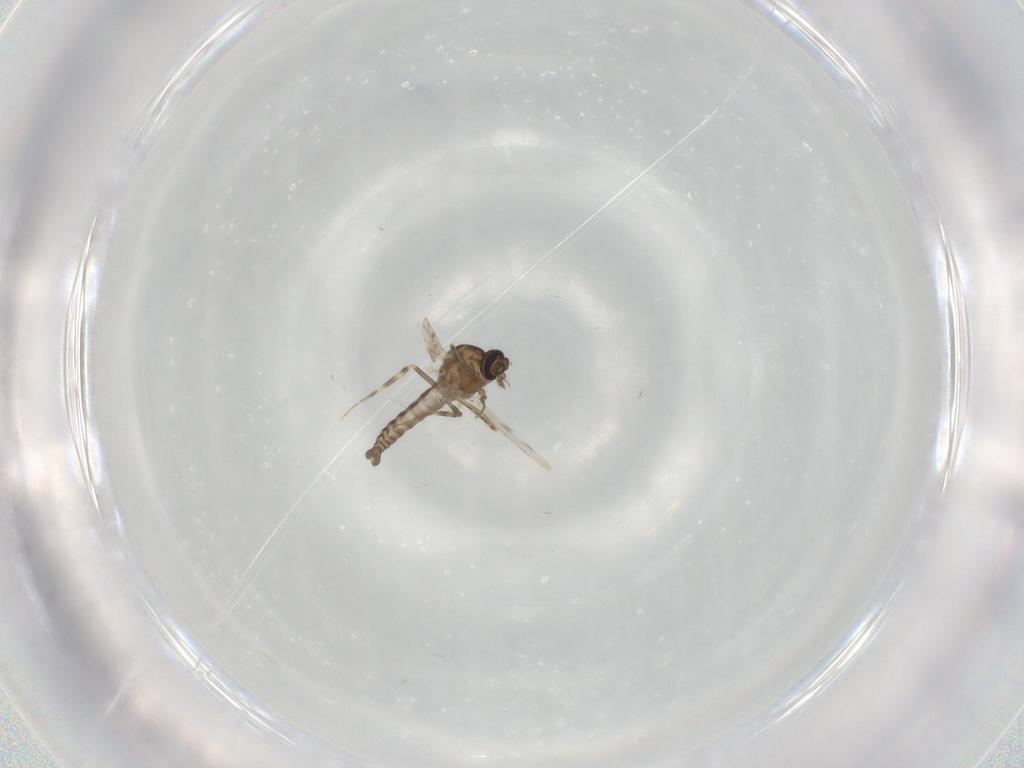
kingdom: Animalia
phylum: Arthropoda
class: Insecta
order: Diptera
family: Ceratopogonidae
